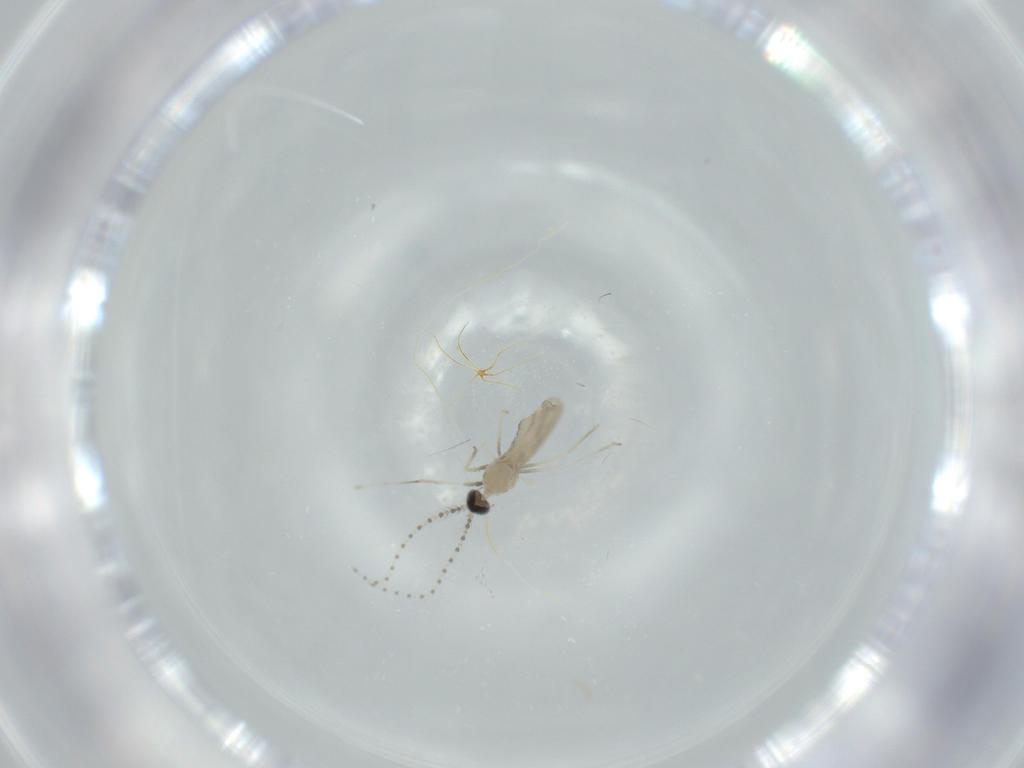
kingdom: Animalia
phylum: Arthropoda
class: Insecta
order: Diptera
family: Cecidomyiidae
